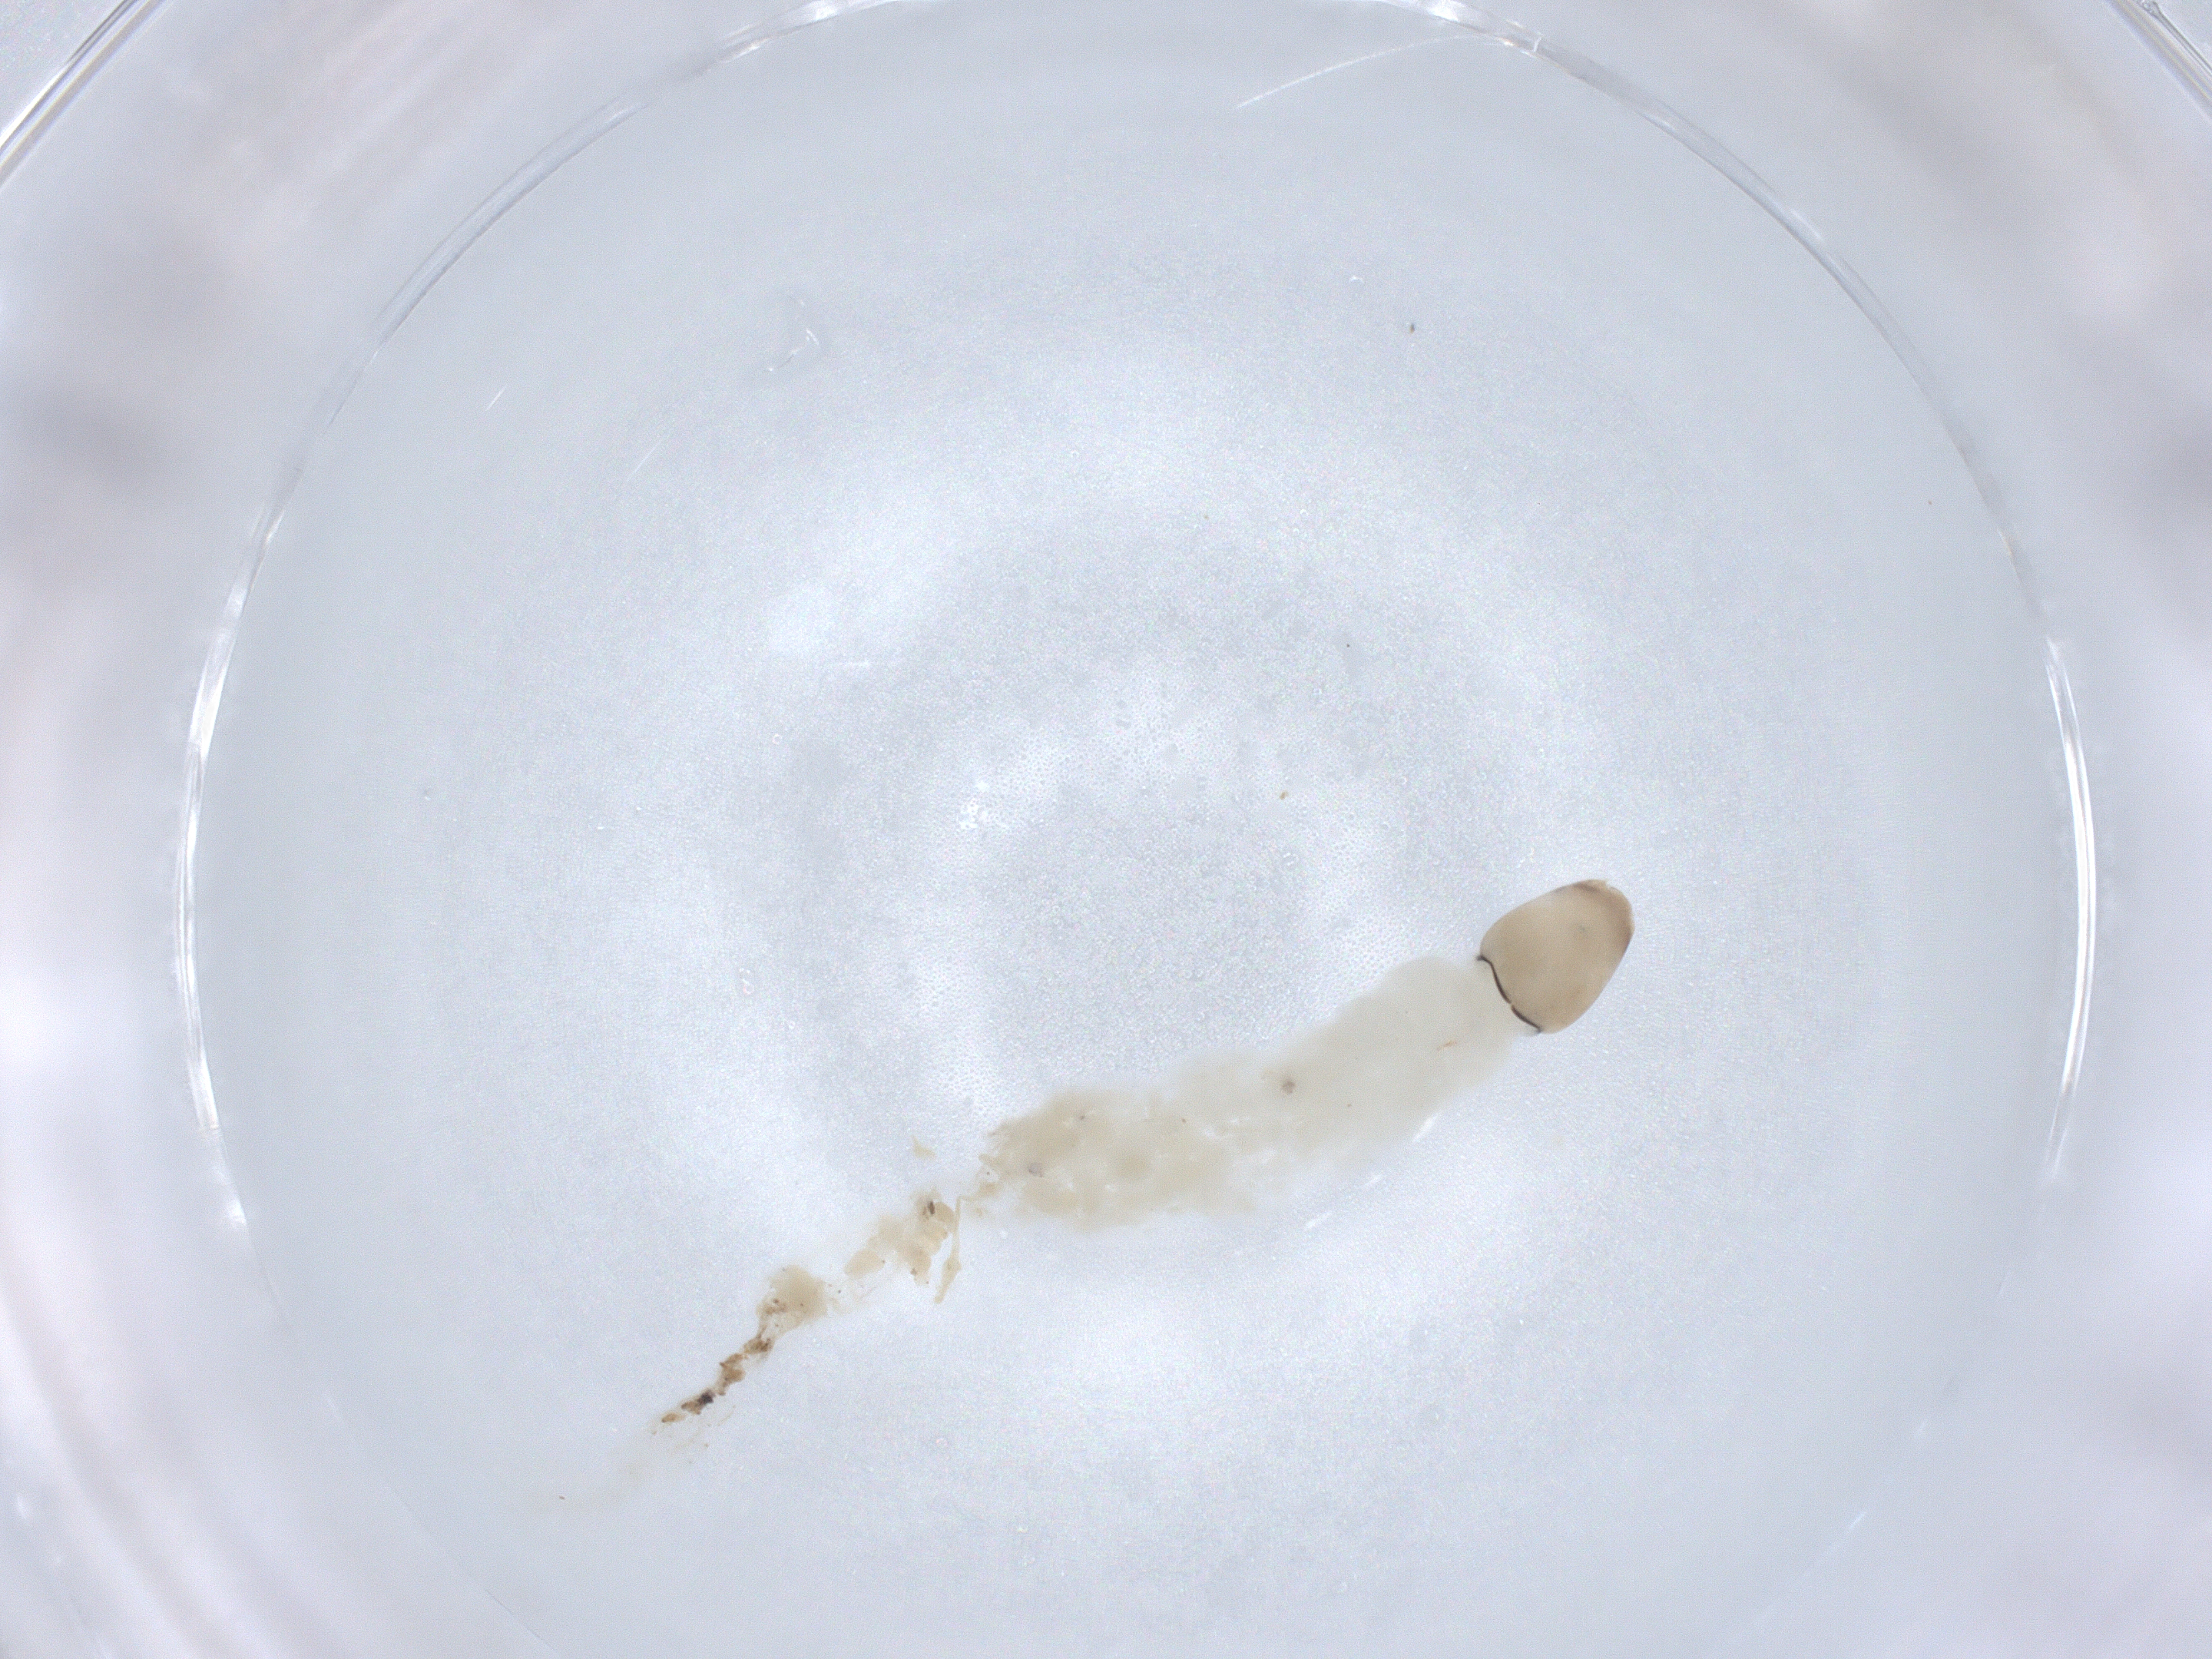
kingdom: Animalia
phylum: Arthropoda
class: Insecta
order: Diptera
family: Chironomidae
